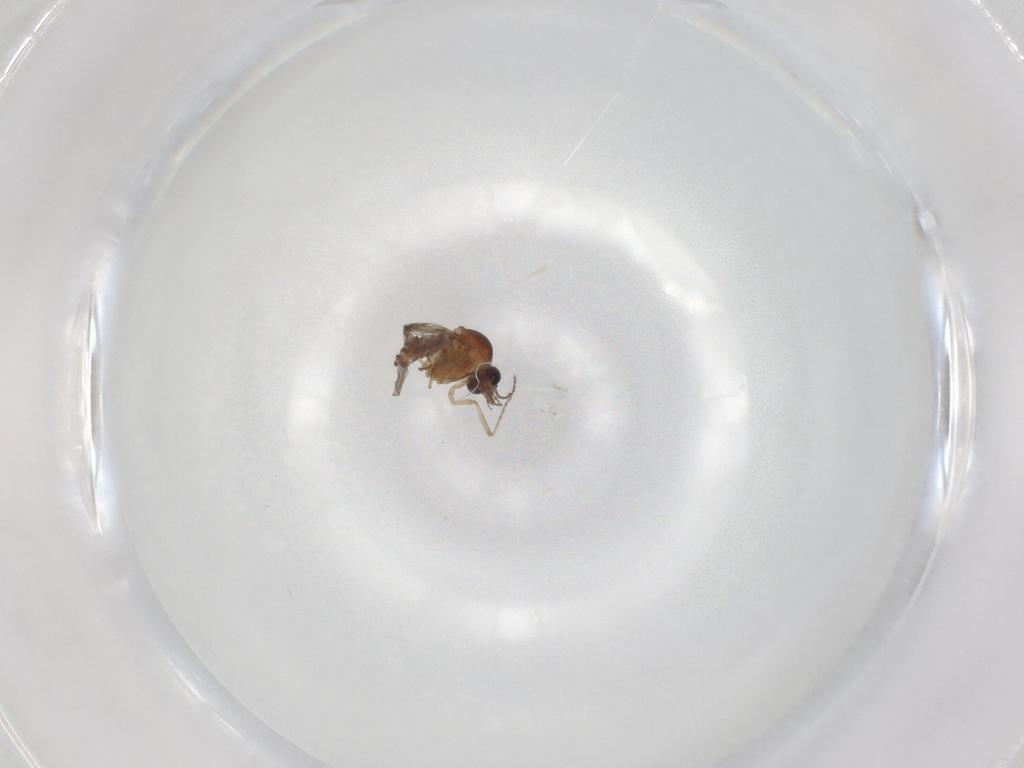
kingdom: Animalia
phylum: Arthropoda
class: Insecta
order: Diptera
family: Ceratopogonidae
